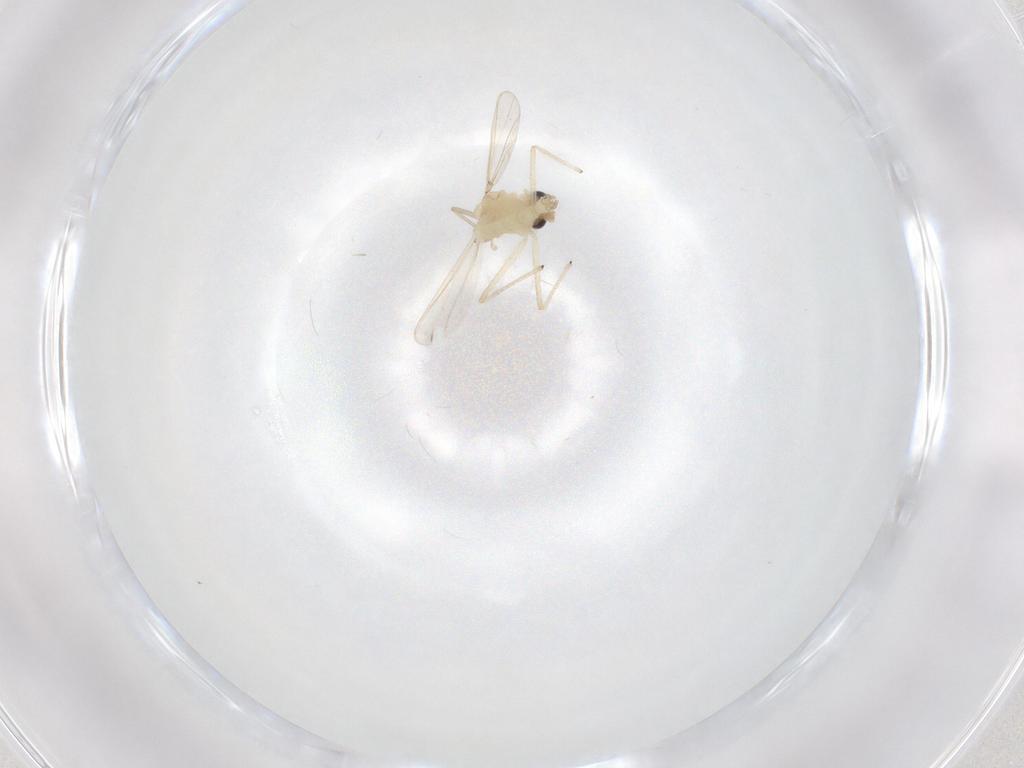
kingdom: Animalia
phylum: Arthropoda
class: Insecta
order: Diptera
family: Chironomidae
